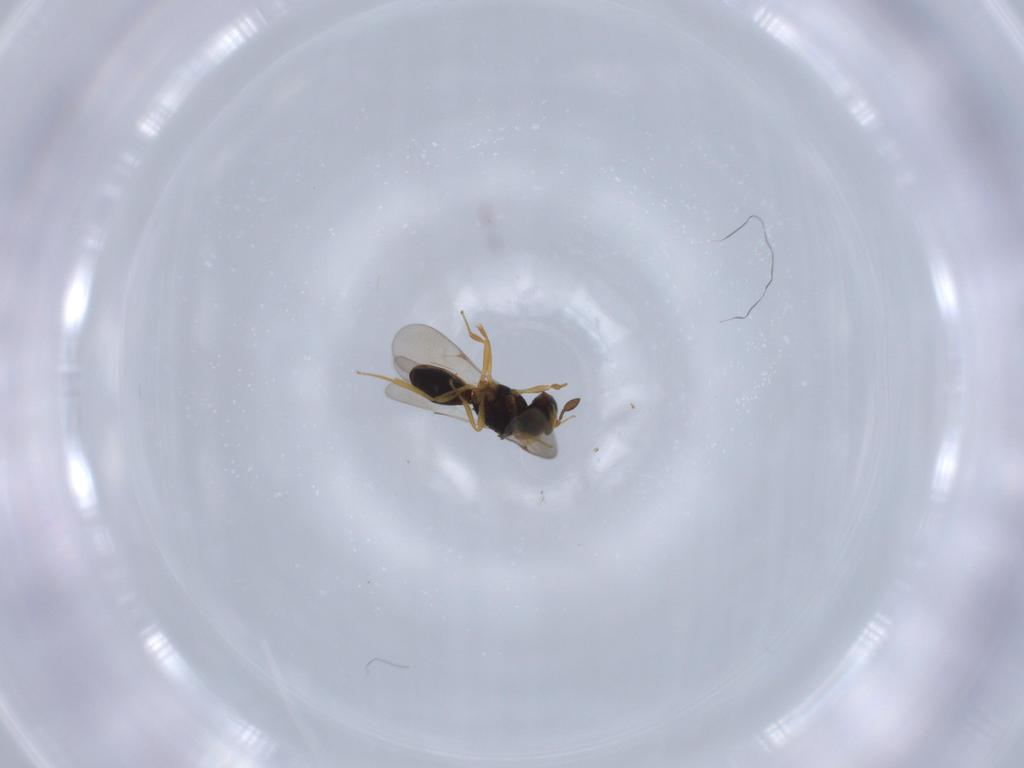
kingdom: Animalia
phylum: Arthropoda
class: Insecta
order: Hymenoptera
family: Scelionidae
